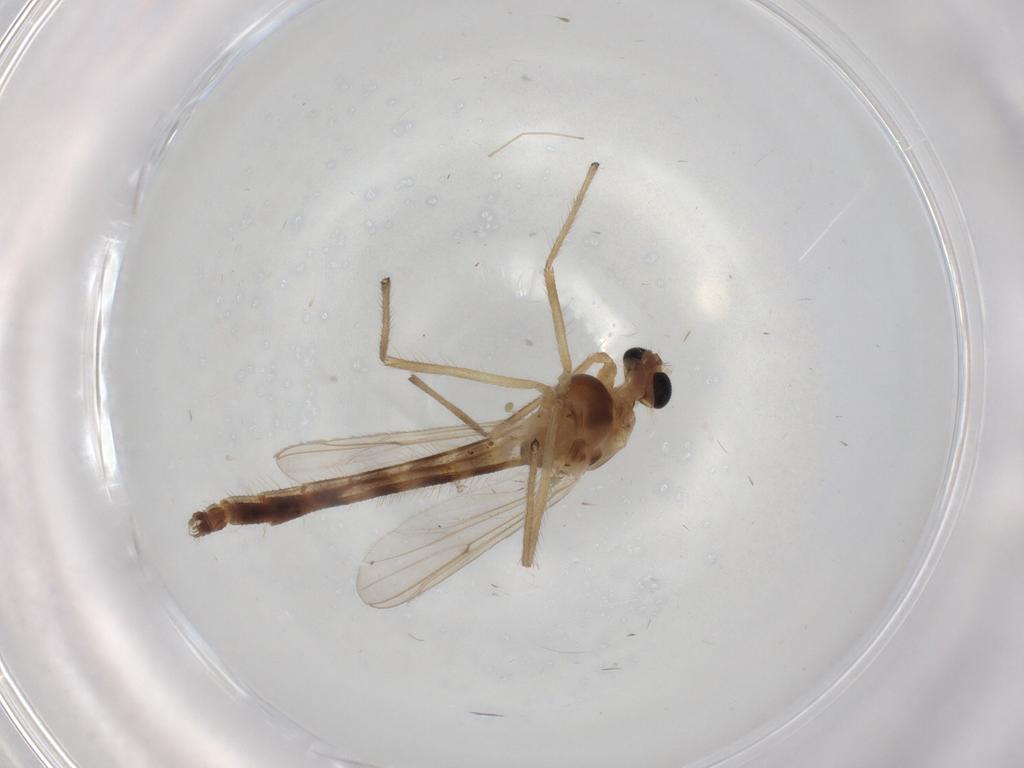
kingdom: Animalia
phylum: Arthropoda
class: Insecta
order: Diptera
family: Chironomidae
